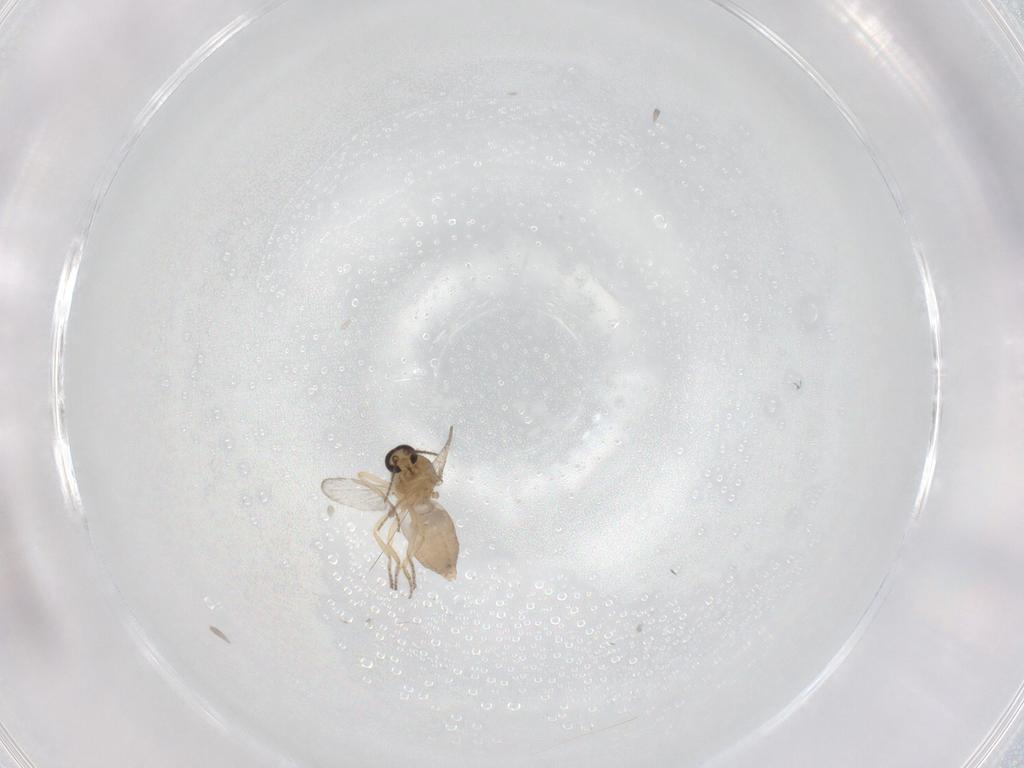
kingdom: Animalia
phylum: Arthropoda
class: Insecta
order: Diptera
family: Ceratopogonidae
